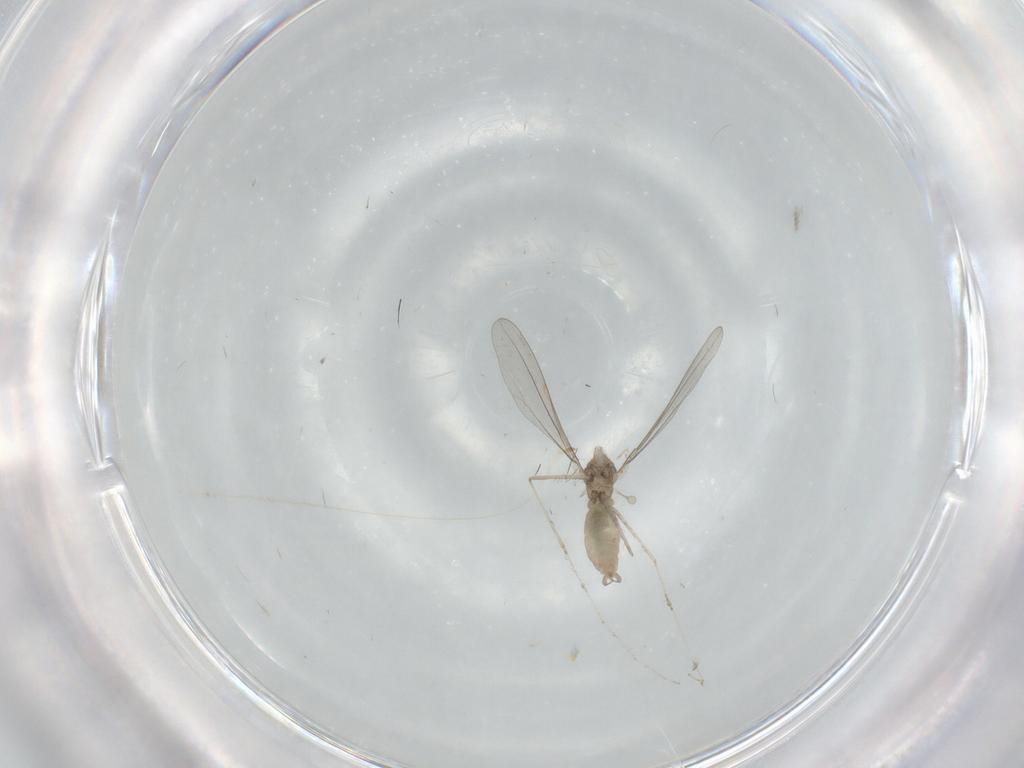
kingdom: Animalia
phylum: Arthropoda
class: Insecta
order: Diptera
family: Cecidomyiidae
